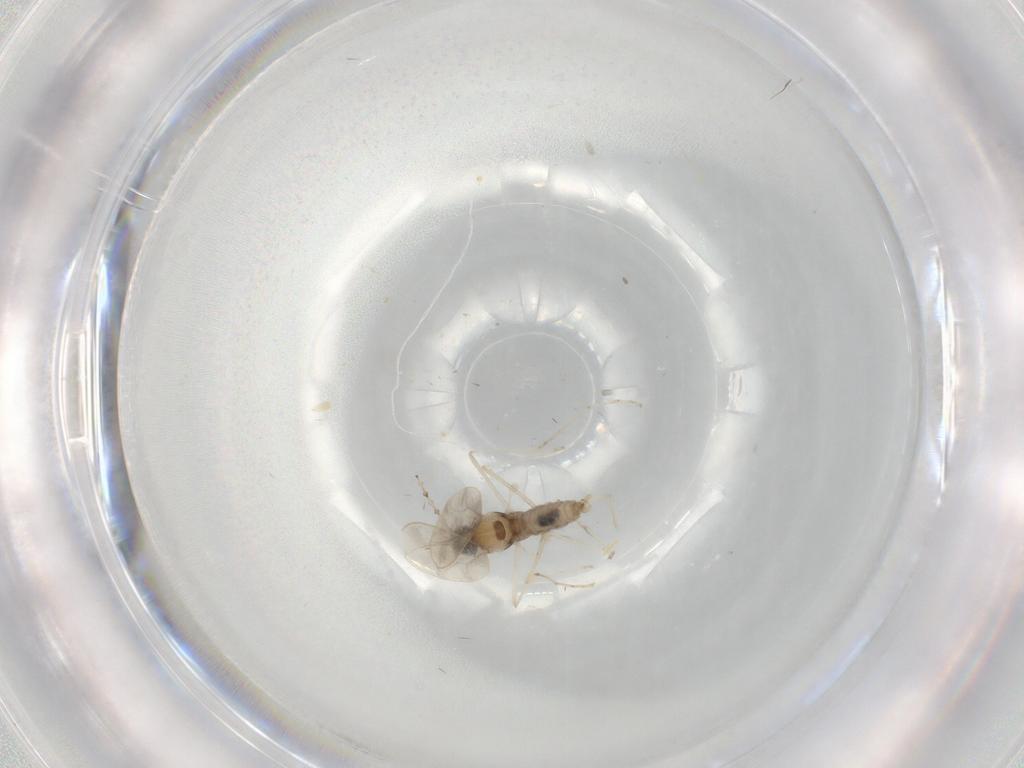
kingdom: Animalia
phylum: Arthropoda
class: Insecta
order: Diptera
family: Cecidomyiidae
